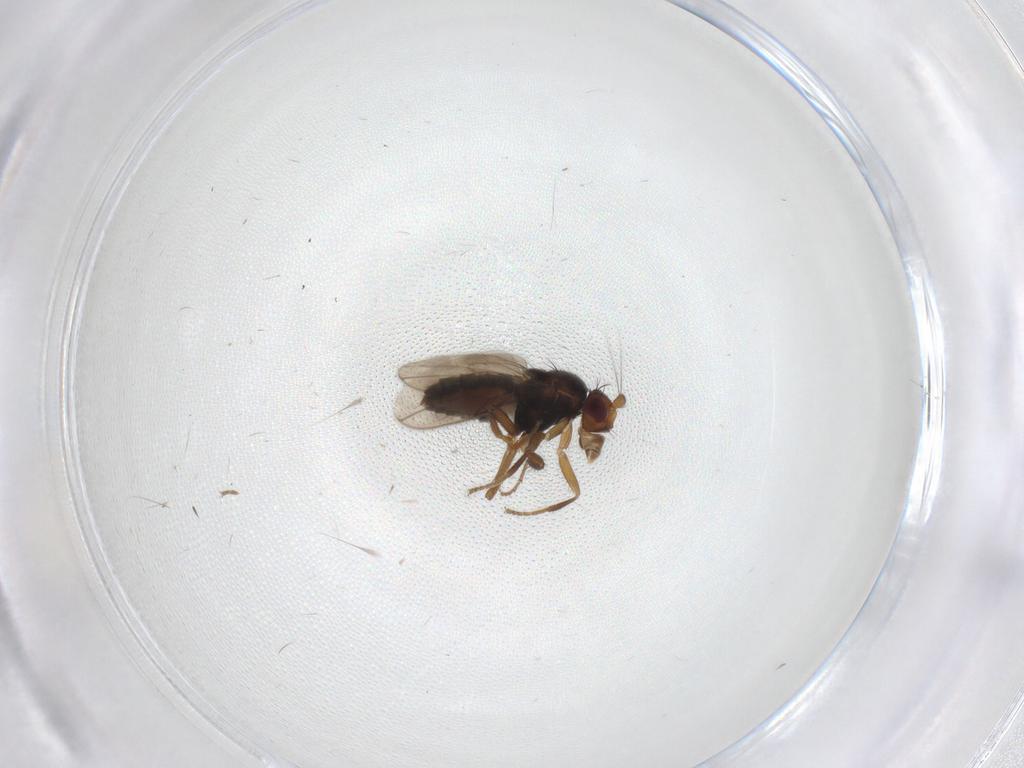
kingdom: Animalia
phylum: Arthropoda
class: Insecta
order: Diptera
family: Sphaeroceridae
